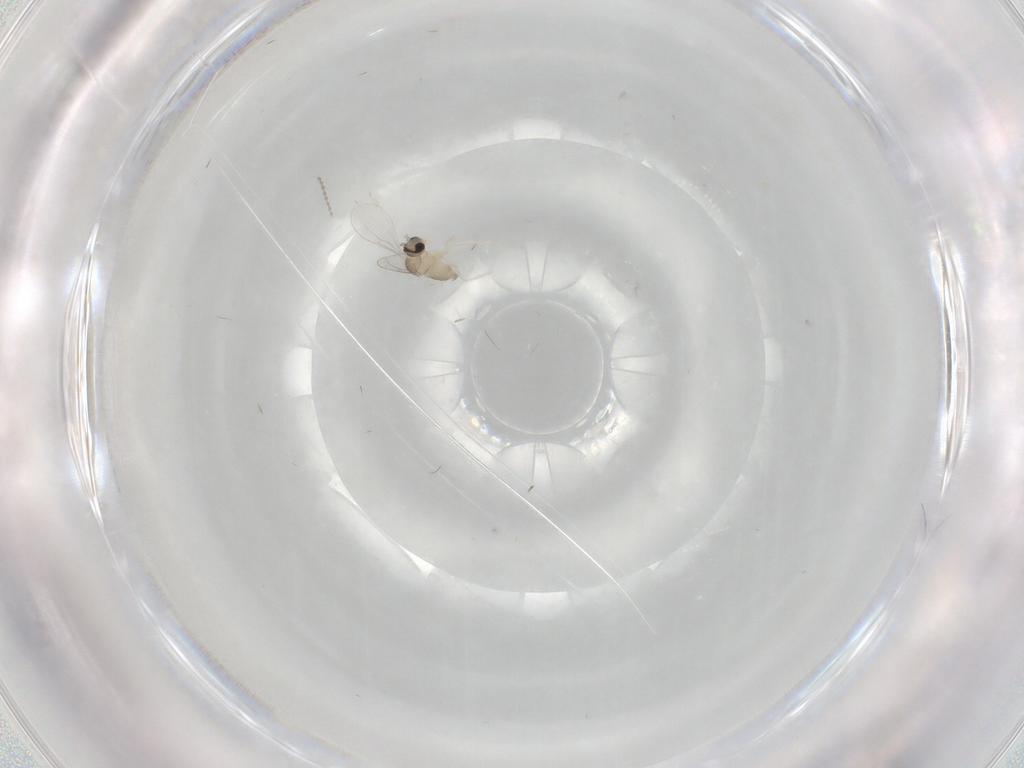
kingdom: Animalia
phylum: Arthropoda
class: Insecta
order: Diptera
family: Cecidomyiidae
